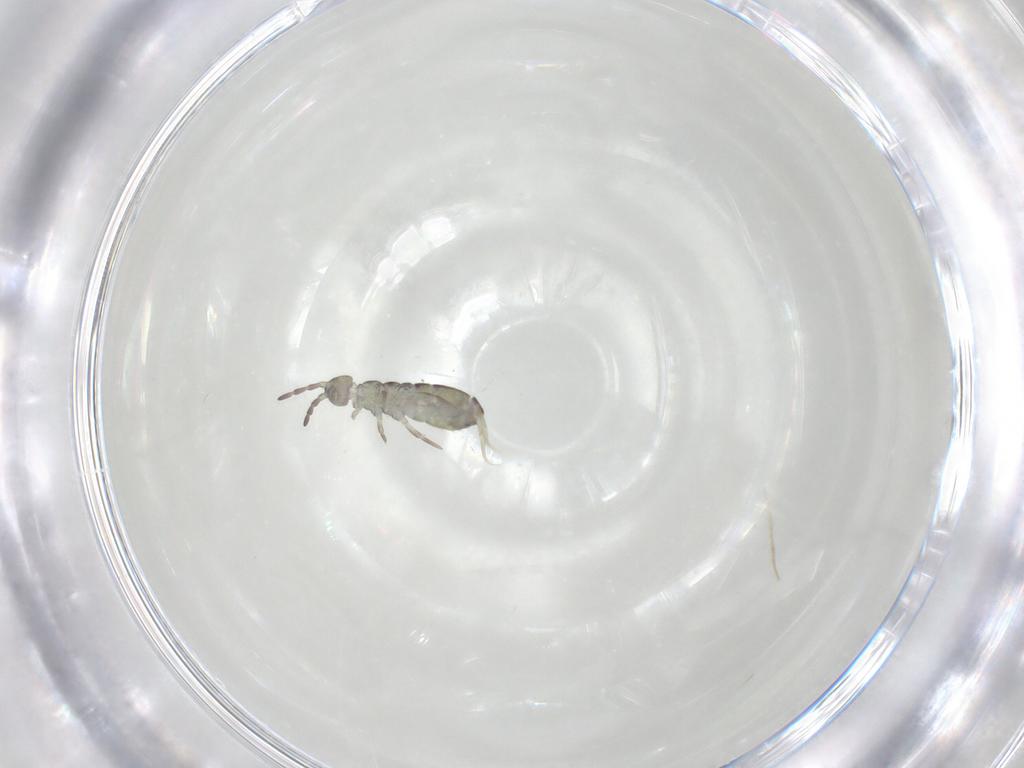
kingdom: Animalia
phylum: Arthropoda
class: Collembola
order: Entomobryomorpha
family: Isotomidae
